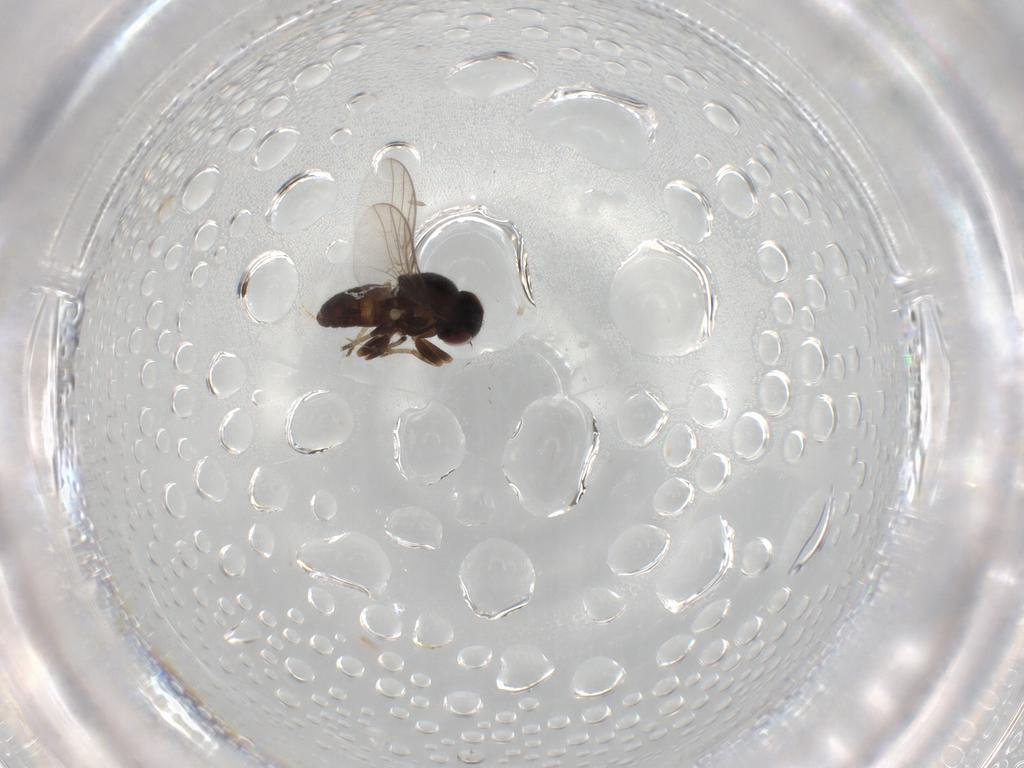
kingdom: Animalia
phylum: Arthropoda
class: Insecta
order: Diptera
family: Chloropidae
